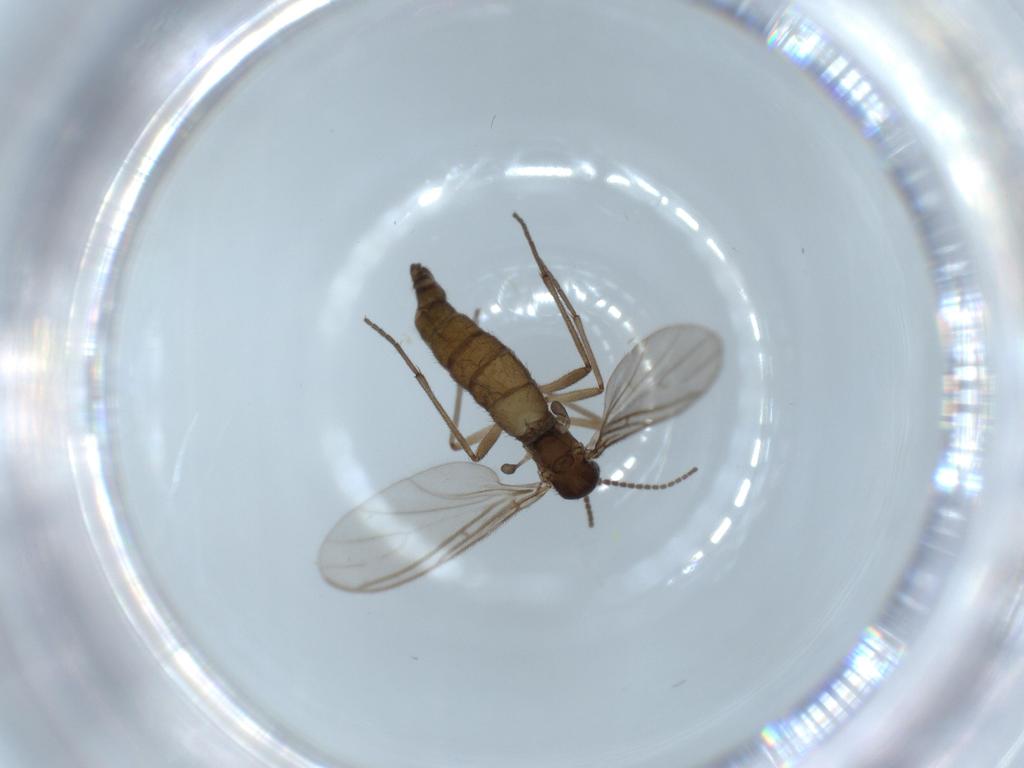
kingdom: Animalia
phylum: Arthropoda
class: Insecta
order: Diptera
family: Sciaridae
